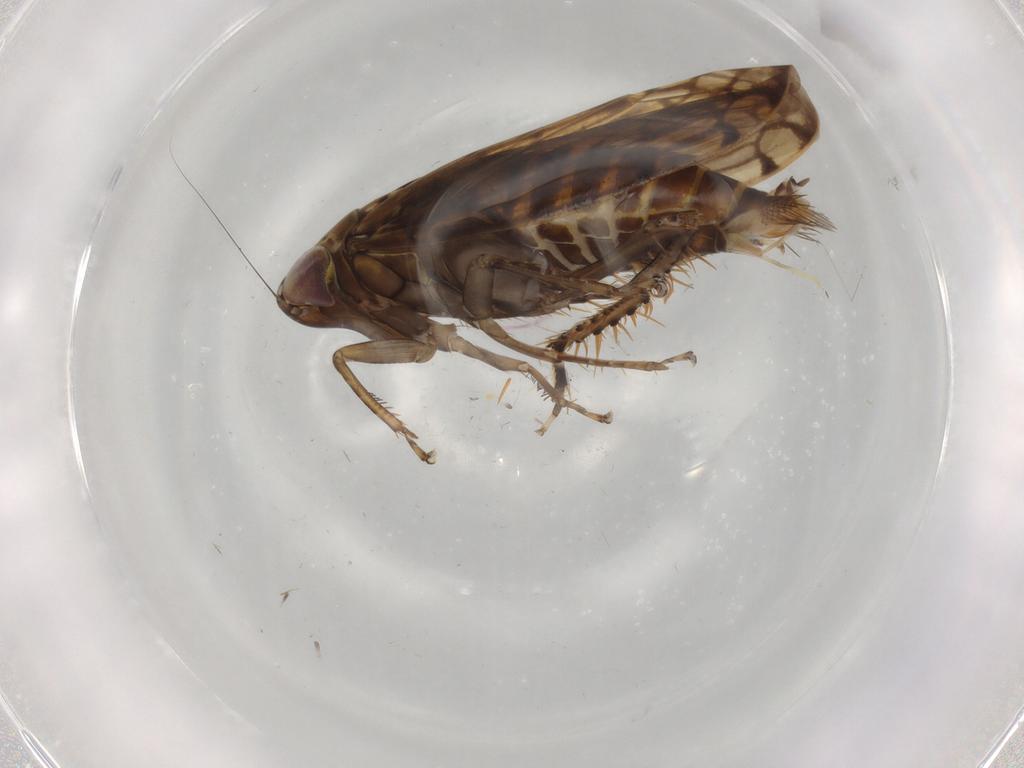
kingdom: Animalia
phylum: Arthropoda
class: Insecta
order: Hemiptera
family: Cicadellidae
